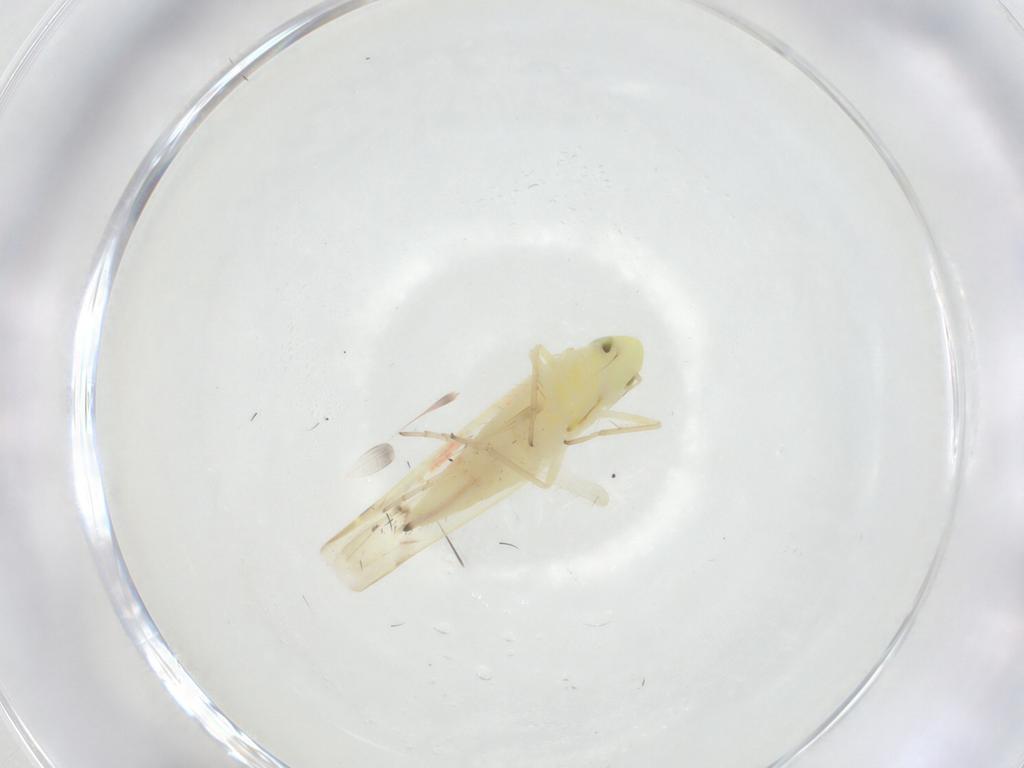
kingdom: Animalia
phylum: Arthropoda
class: Insecta
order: Hemiptera
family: Cicadellidae
